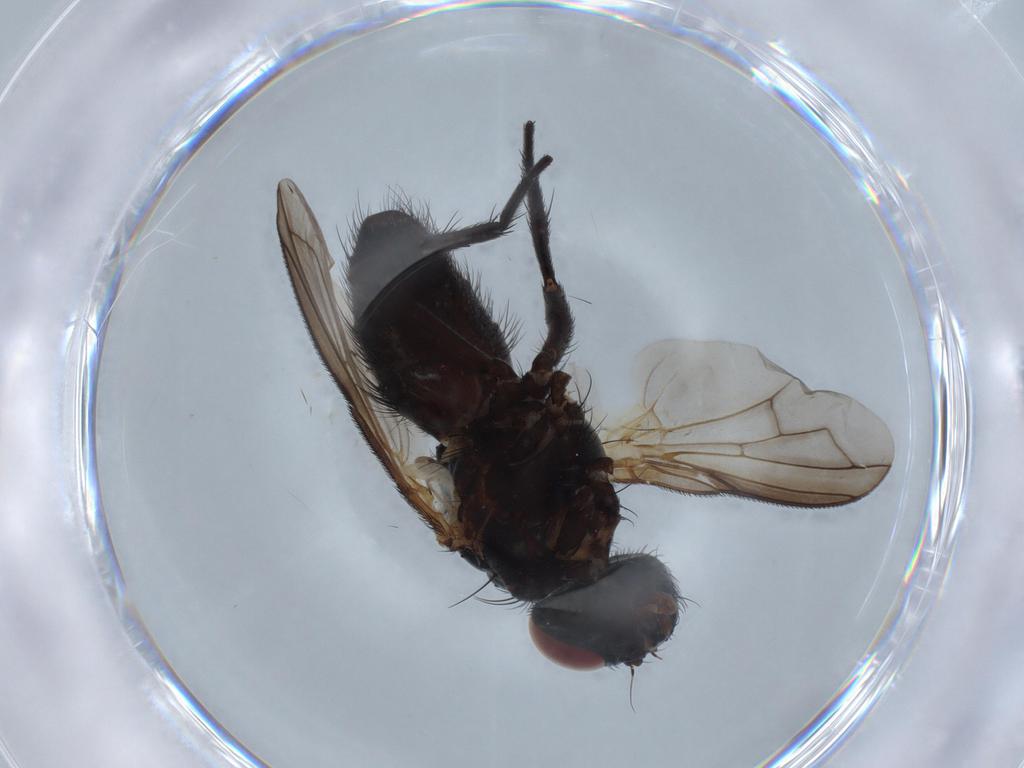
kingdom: Animalia
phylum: Arthropoda
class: Insecta
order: Diptera
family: Tachinidae
